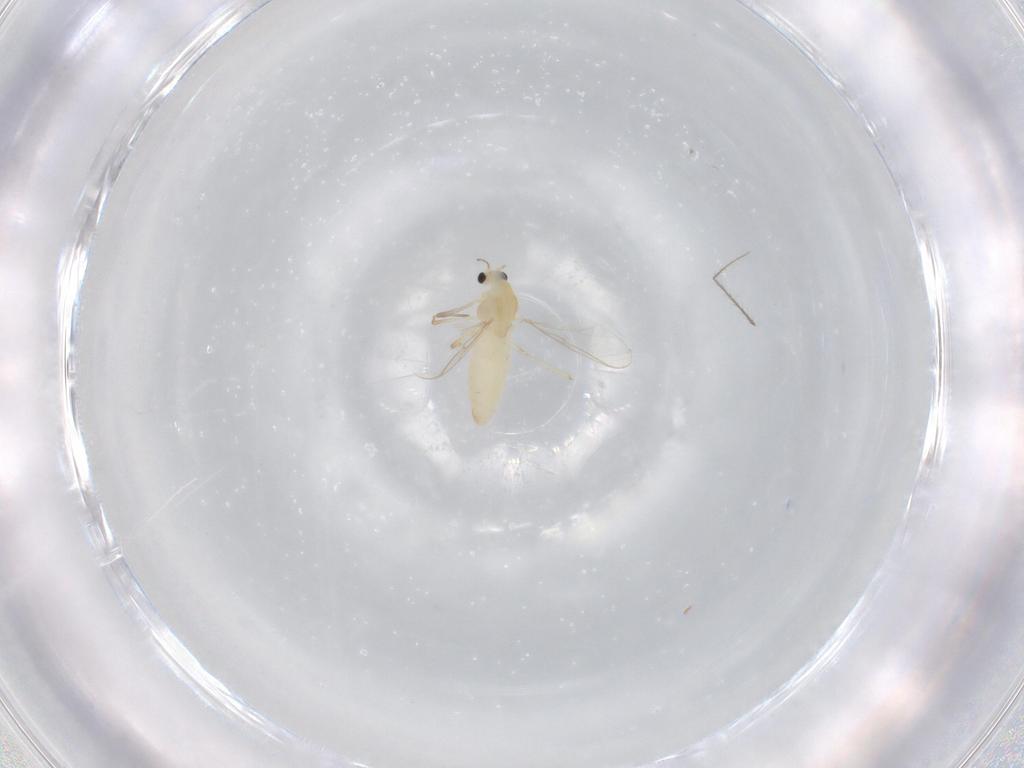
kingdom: Animalia
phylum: Arthropoda
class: Insecta
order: Diptera
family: Chironomidae
